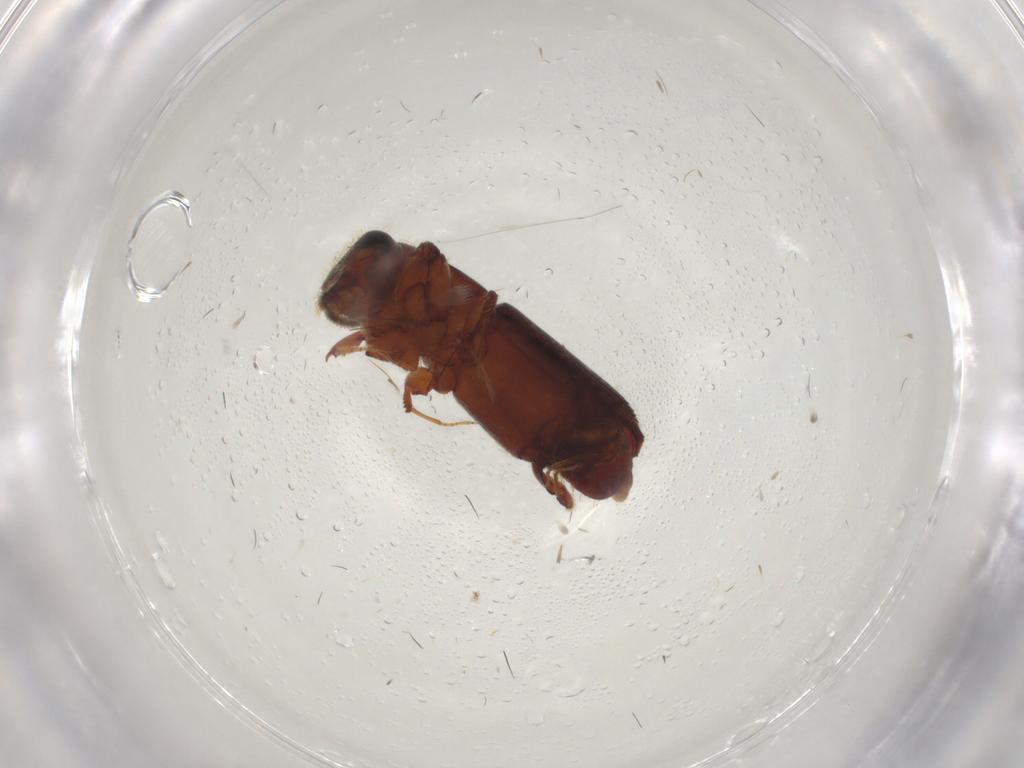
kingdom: Animalia
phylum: Arthropoda
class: Insecta
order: Coleoptera
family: Curculionidae
